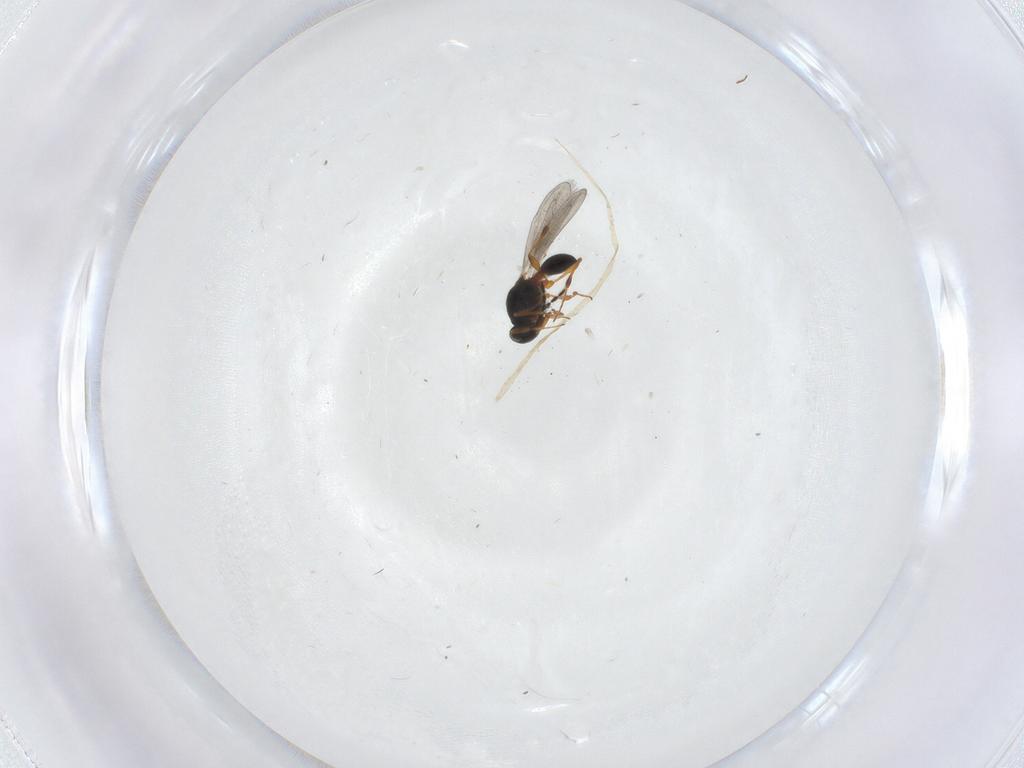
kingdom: Animalia
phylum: Arthropoda
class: Insecta
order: Hymenoptera
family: Platygastridae
